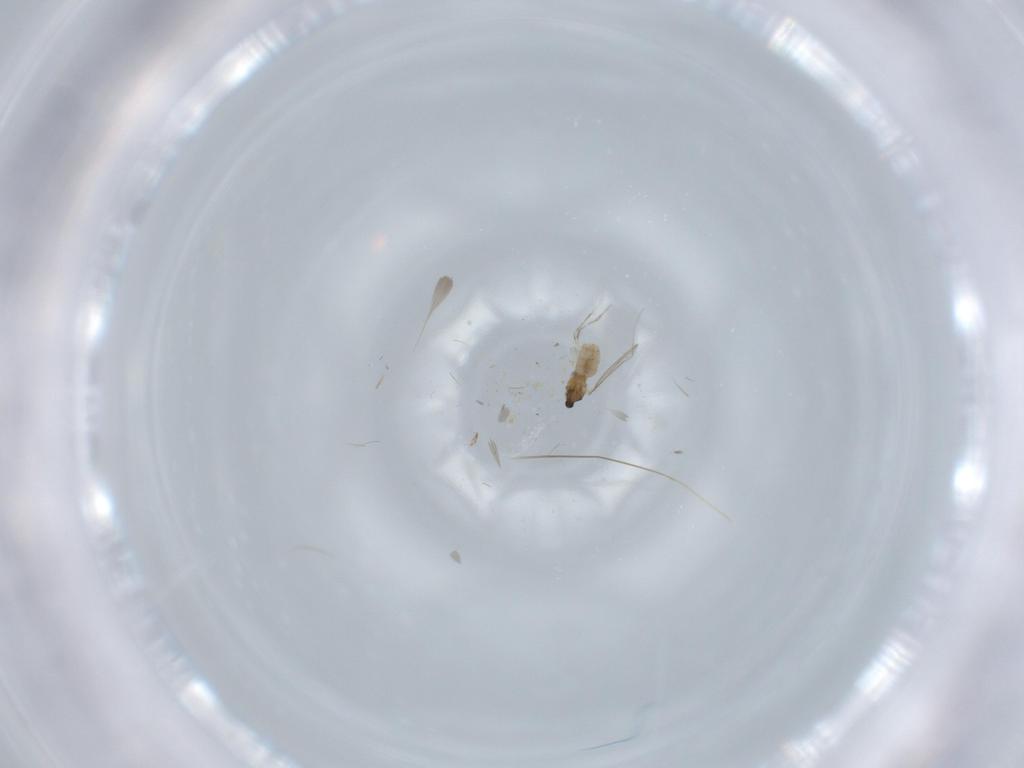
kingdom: Animalia
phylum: Arthropoda
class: Insecta
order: Diptera
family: Cecidomyiidae
